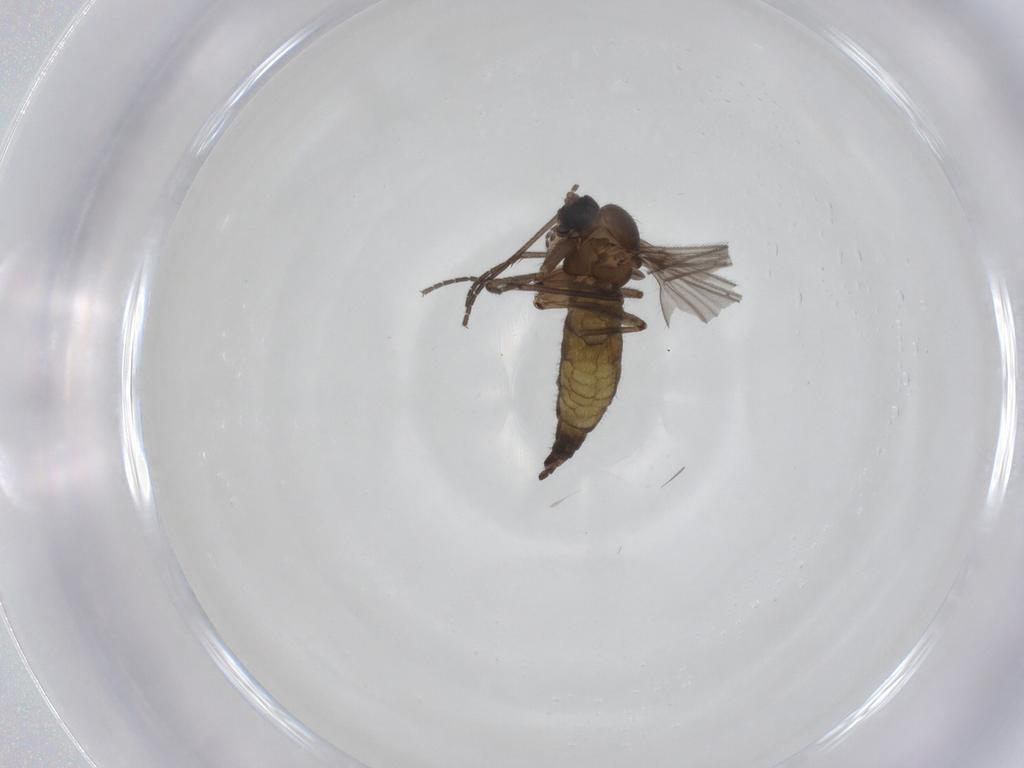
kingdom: Animalia
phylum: Arthropoda
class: Insecta
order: Diptera
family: Sciaridae
